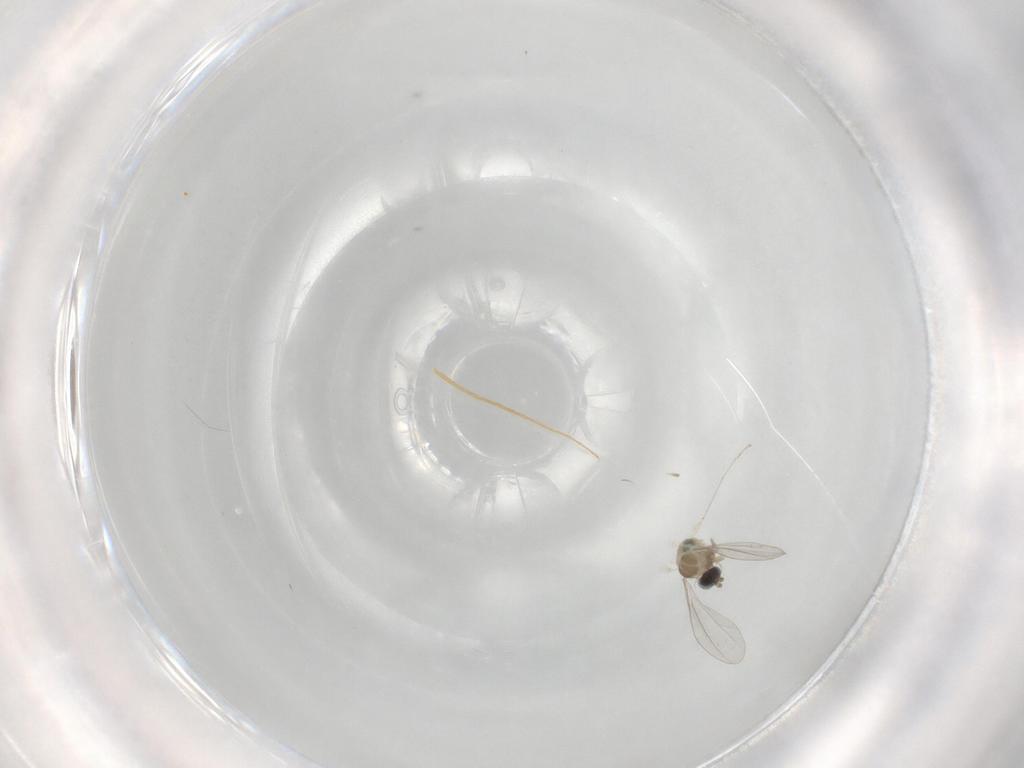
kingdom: Animalia
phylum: Arthropoda
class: Insecta
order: Diptera
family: Cecidomyiidae
